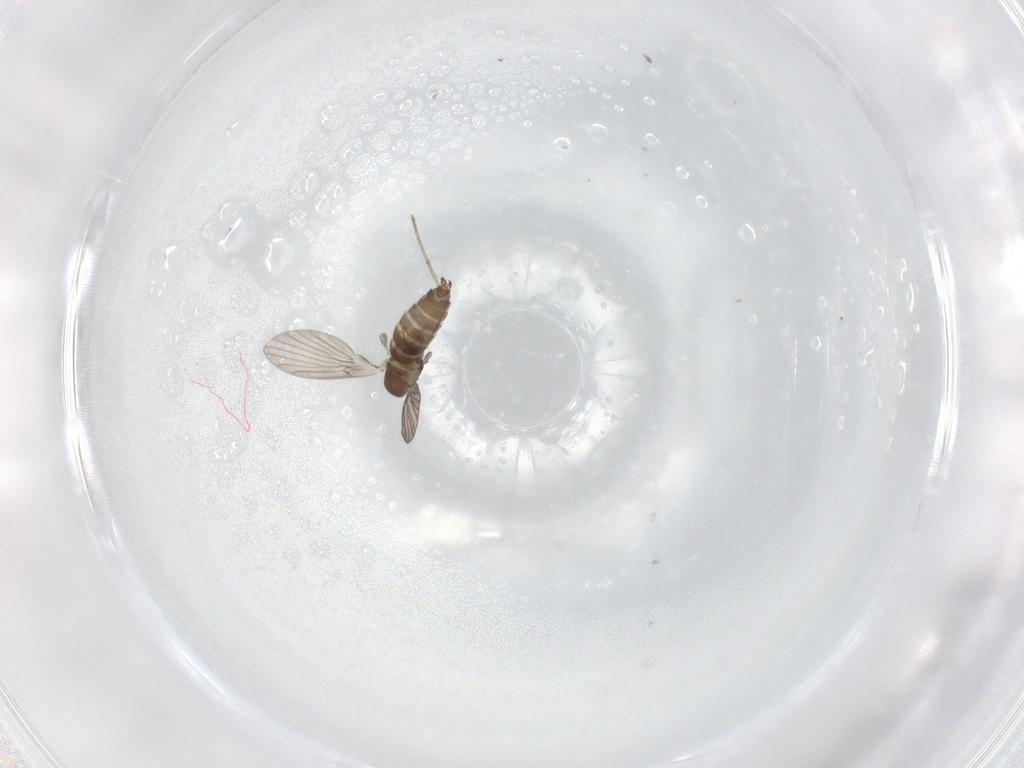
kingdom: Animalia
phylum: Arthropoda
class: Insecta
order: Diptera
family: Psychodidae
